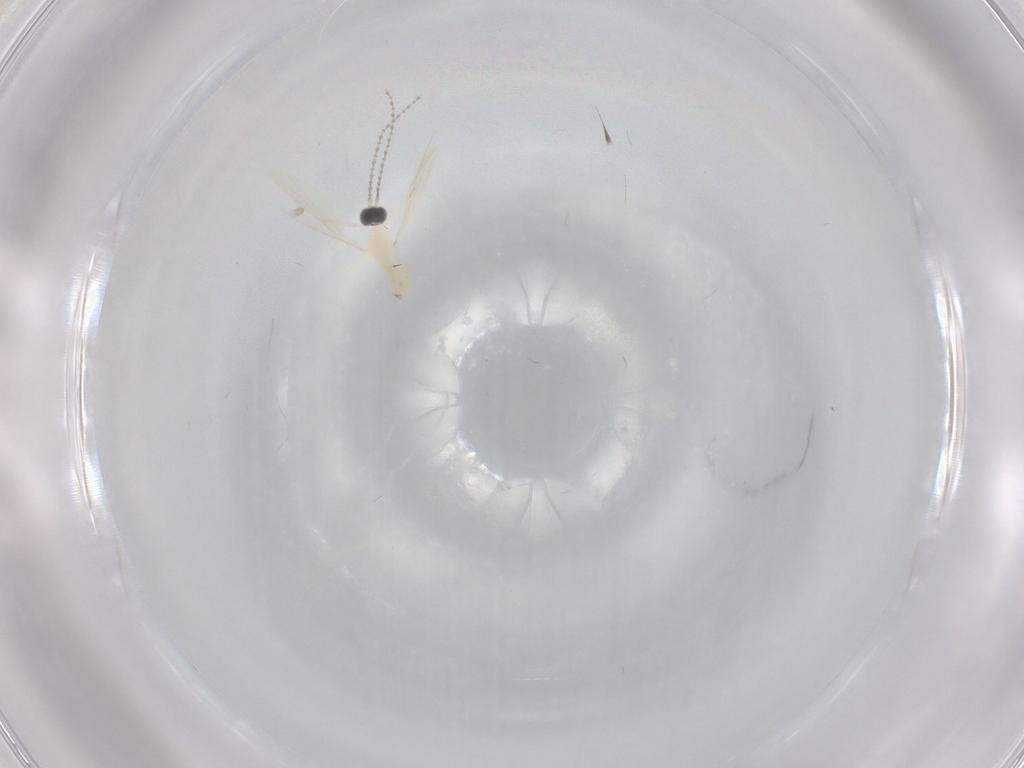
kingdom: Animalia
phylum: Arthropoda
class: Insecta
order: Diptera
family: Cecidomyiidae
